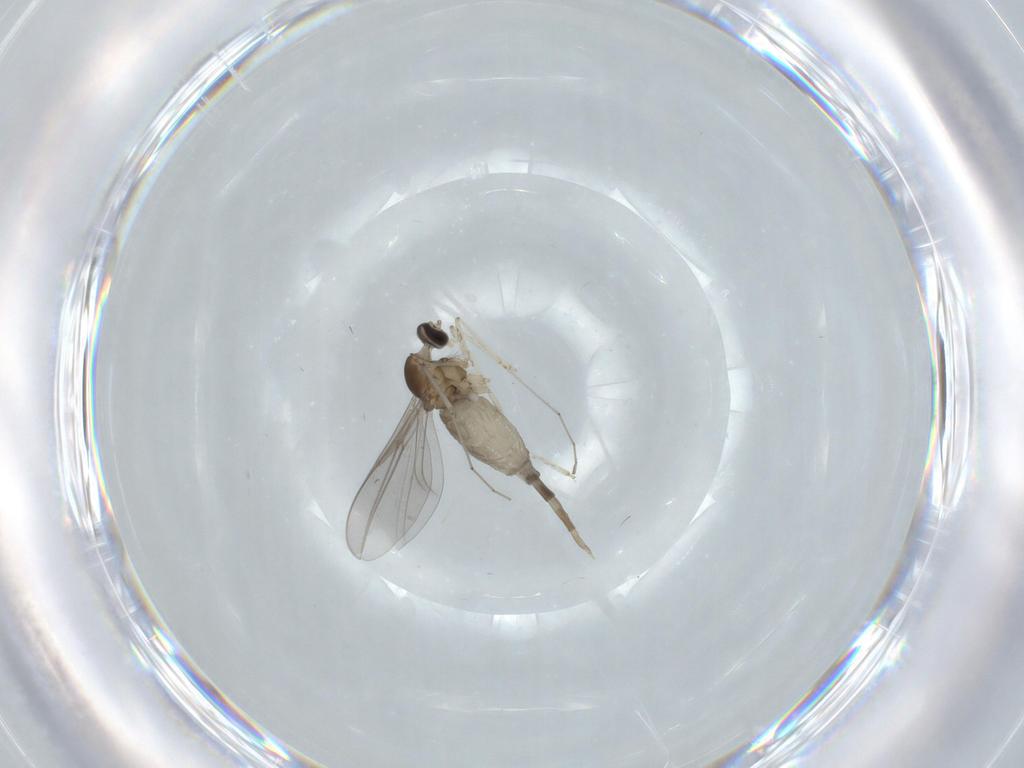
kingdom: Animalia
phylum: Arthropoda
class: Insecta
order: Diptera
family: Cecidomyiidae
